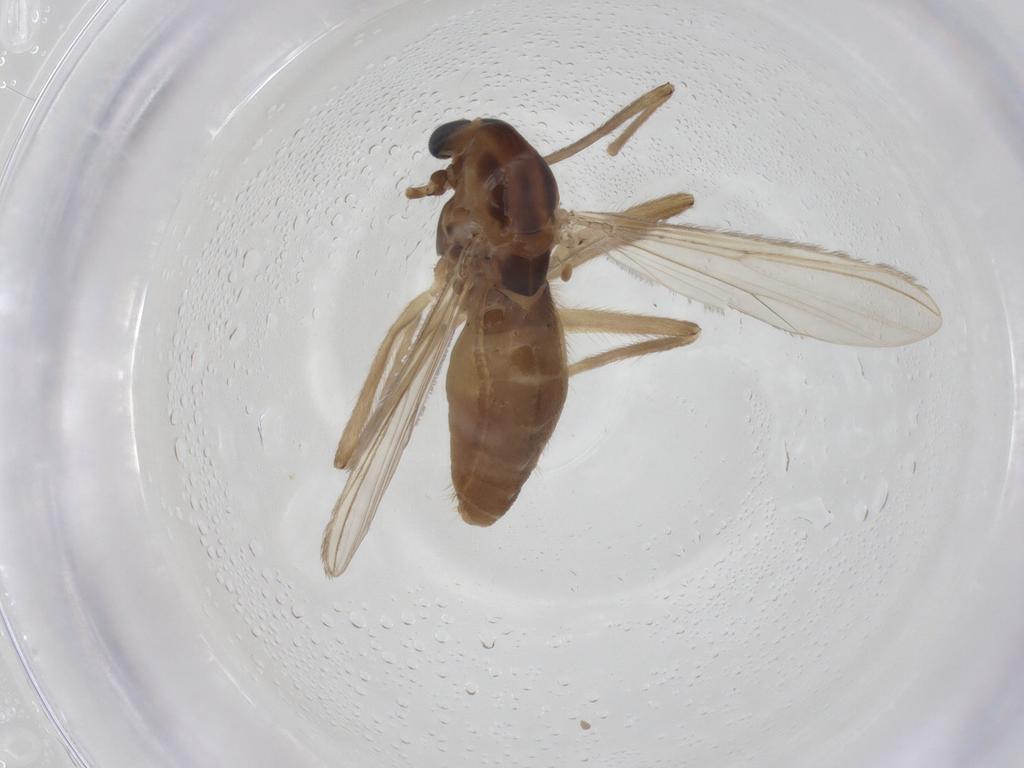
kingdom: Animalia
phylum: Arthropoda
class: Insecta
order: Diptera
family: Chironomidae
